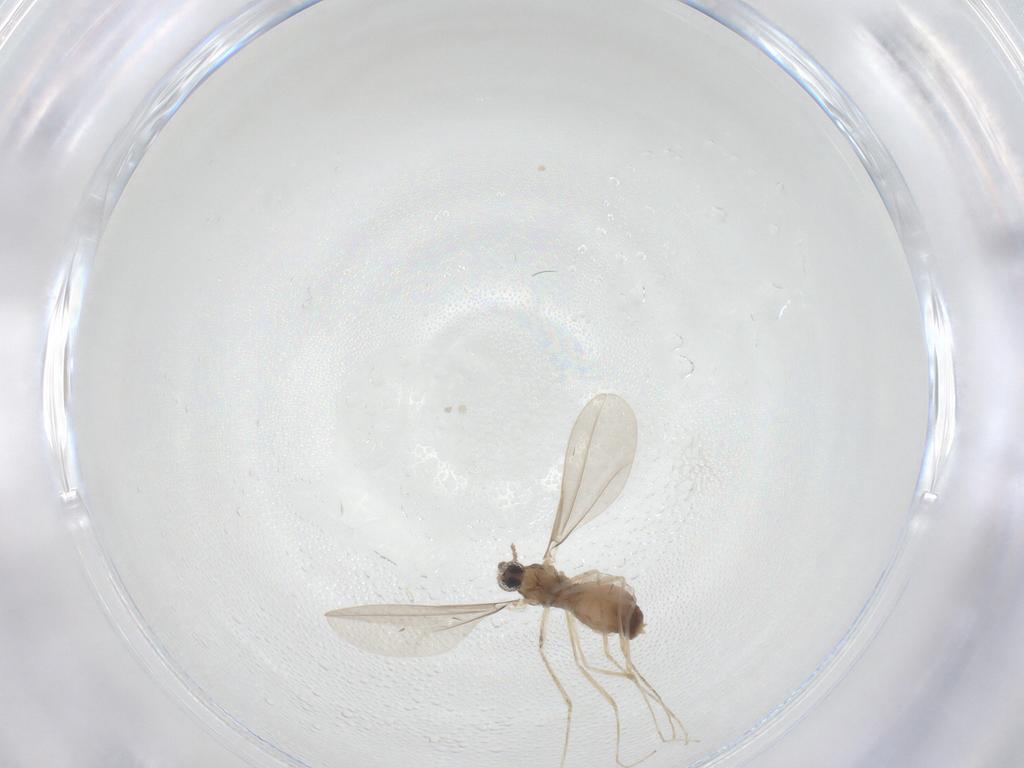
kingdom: Animalia
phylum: Arthropoda
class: Insecta
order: Diptera
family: Cecidomyiidae
